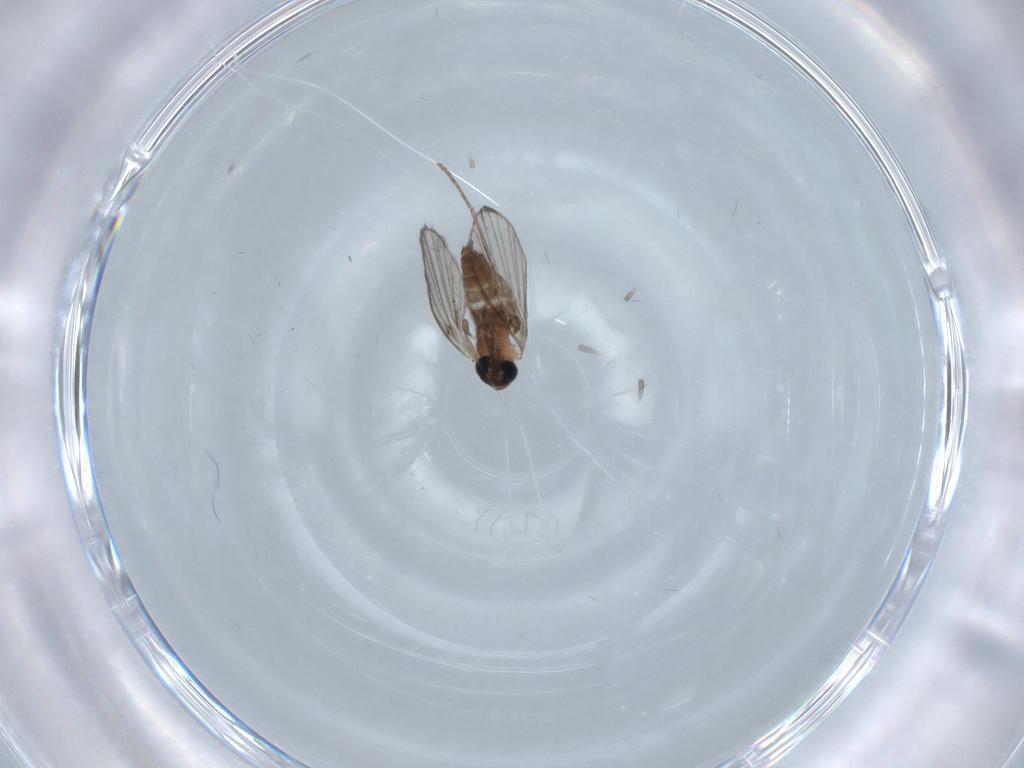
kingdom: Animalia
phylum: Arthropoda
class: Insecta
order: Diptera
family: Psychodidae
